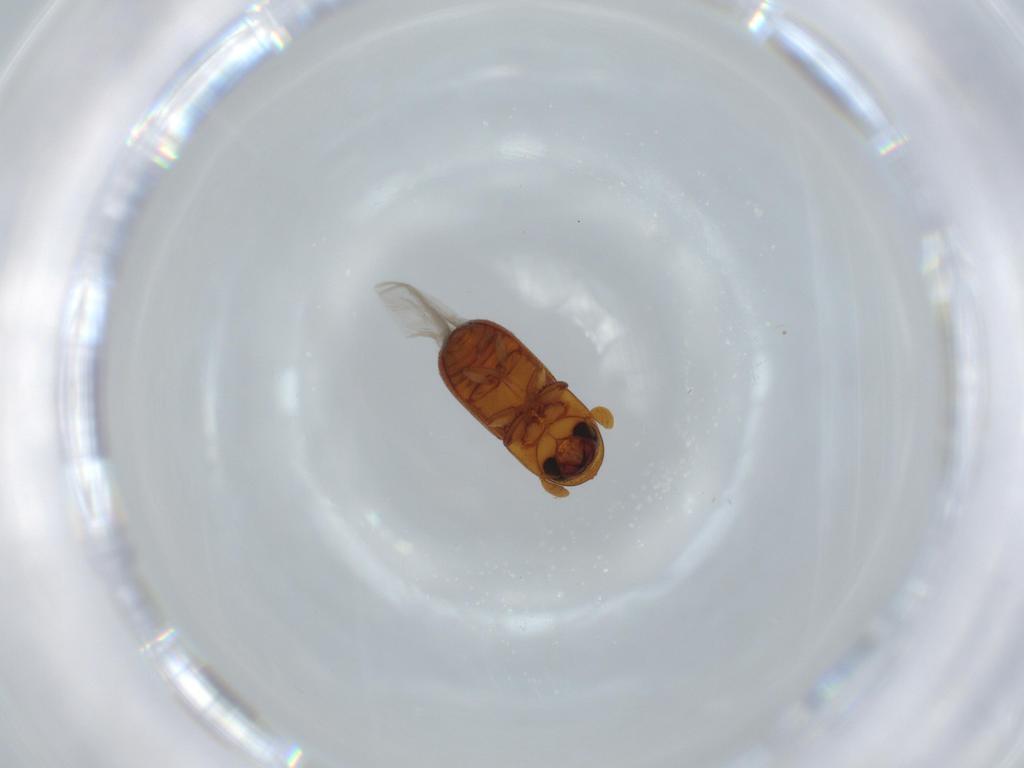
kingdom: Animalia
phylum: Arthropoda
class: Insecta
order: Coleoptera
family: Curculionidae
